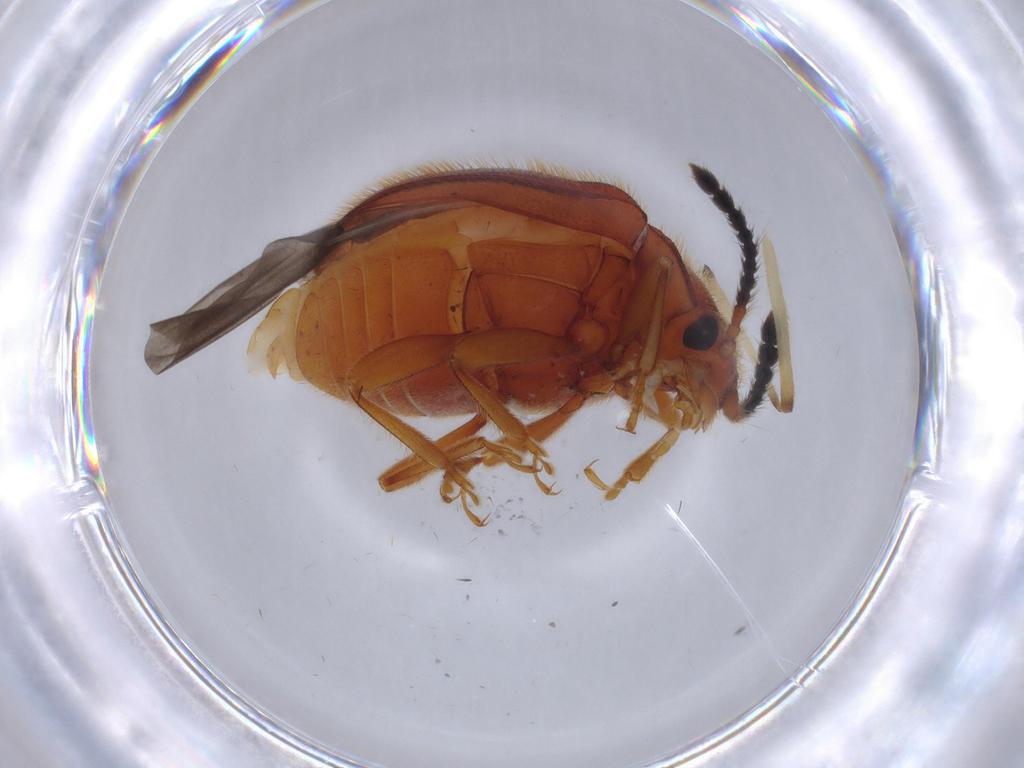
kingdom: Animalia
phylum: Arthropoda
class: Insecta
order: Coleoptera
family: Endomychidae
